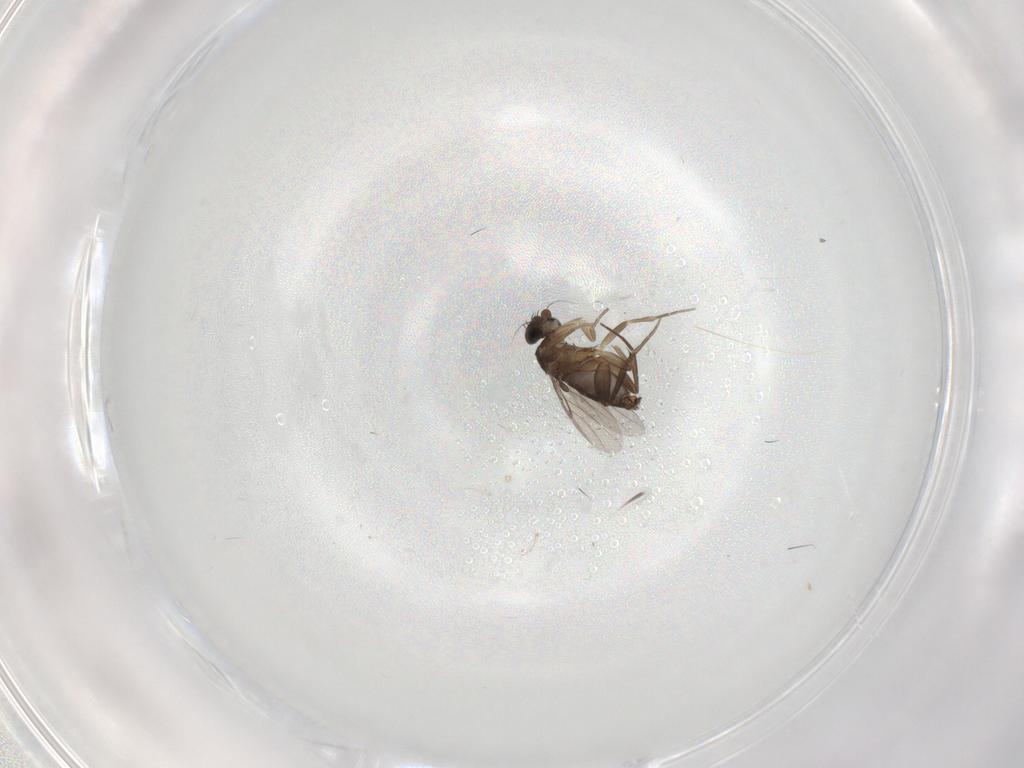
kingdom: Animalia
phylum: Arthropoda
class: Insecta
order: Diptera
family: Phoridae
